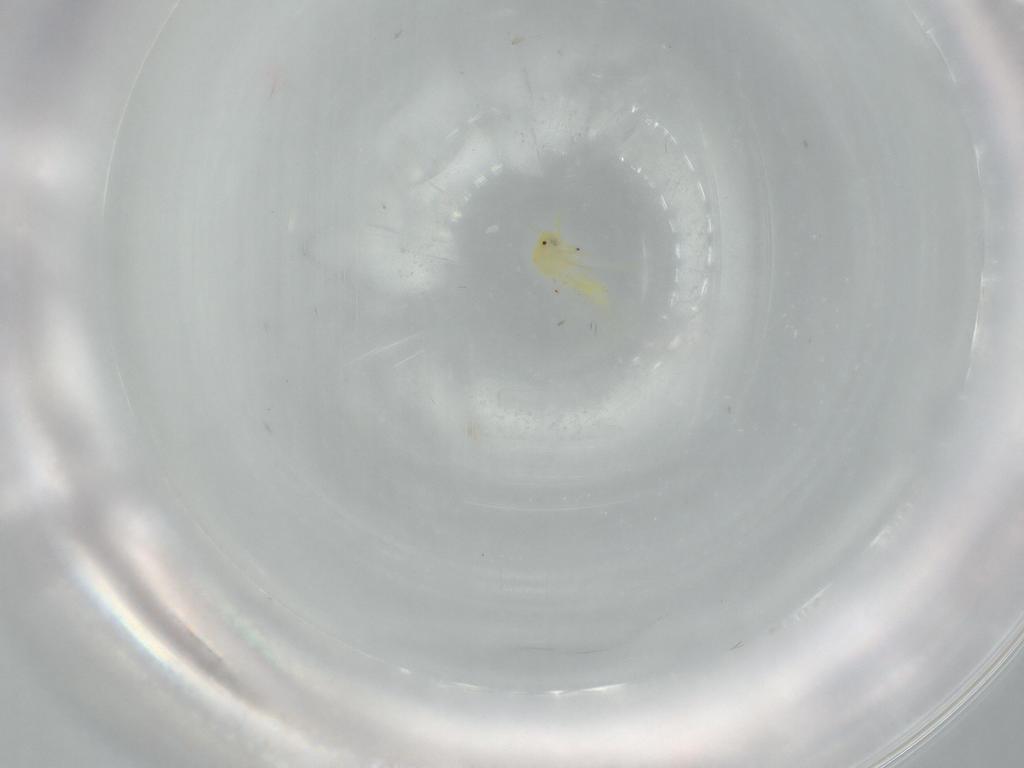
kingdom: Animalia
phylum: Arthropoda
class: Insecta
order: Hemiptera
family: Aleyrodidae
